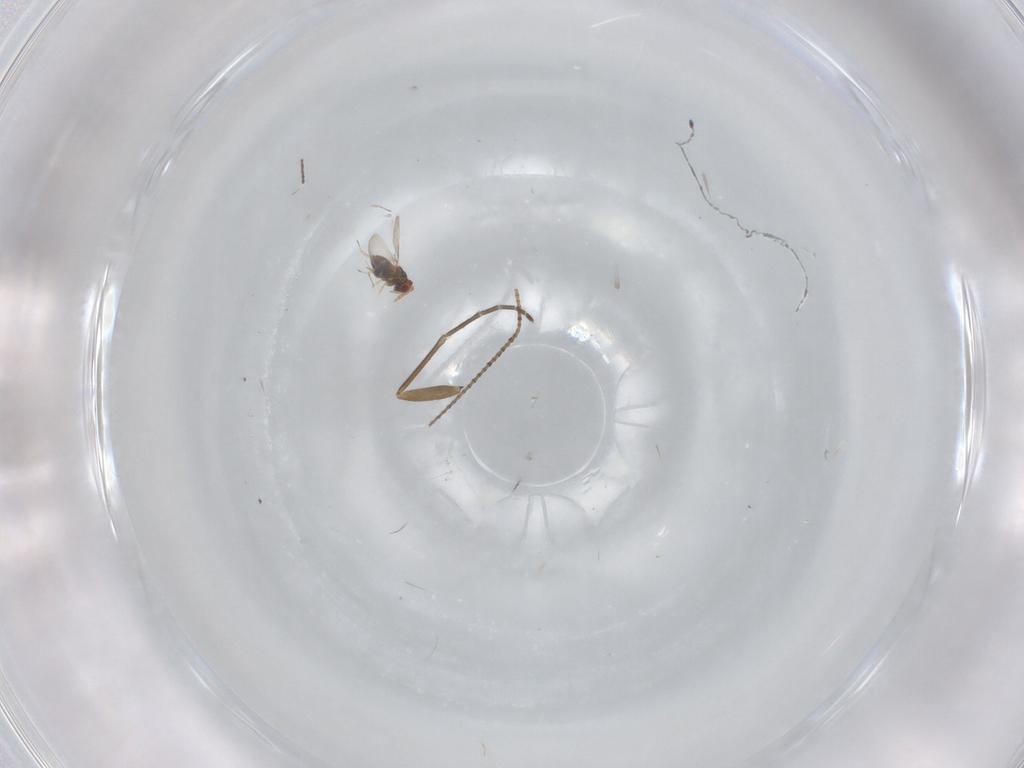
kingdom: Animalia
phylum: Arthropoda
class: Insecta
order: Hymenoptera
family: Trichogrammatidae
